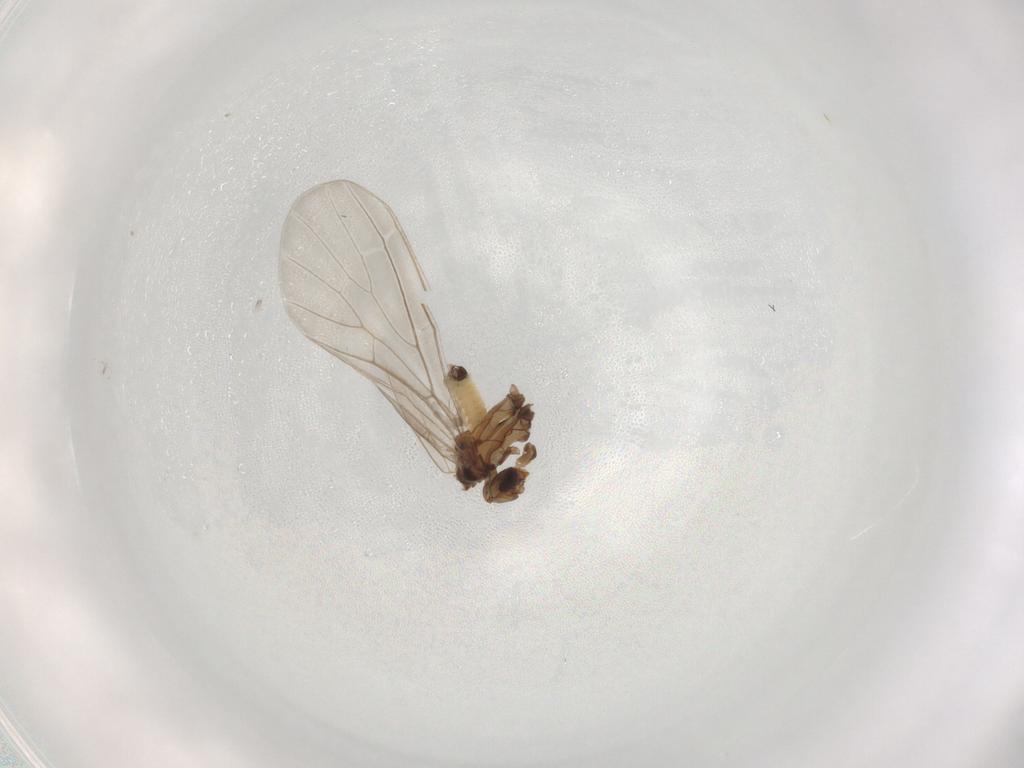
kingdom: Animalia
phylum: Arthropoda
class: Insecta
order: Neuroptera
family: Coniopterygidae
